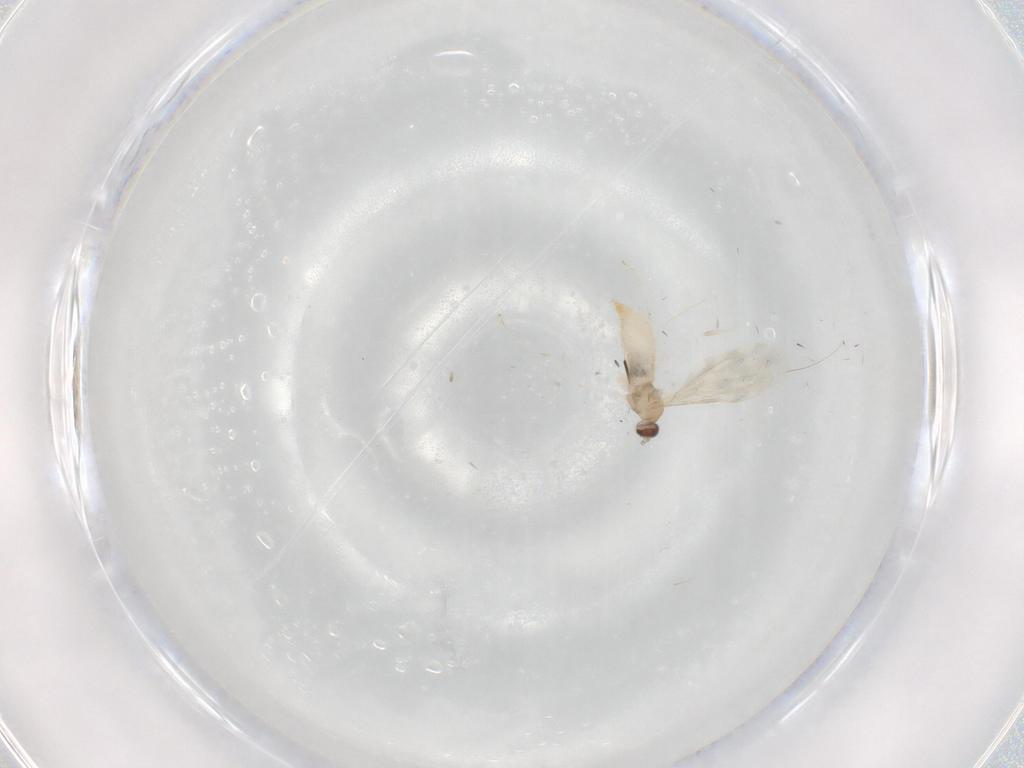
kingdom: Animalia
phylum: Arthropoda
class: Insecta
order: Diptera
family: Cecidomyiidae
